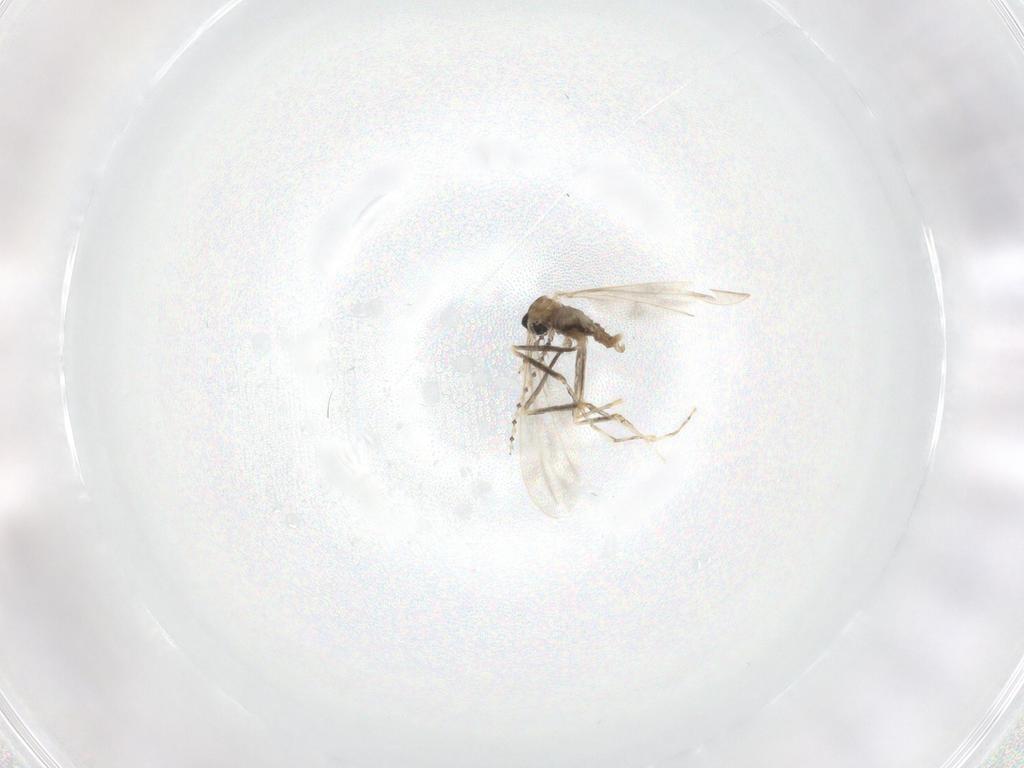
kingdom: Animalia
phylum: Arthropoda
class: Insecta
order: Diptera
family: Cecidomyiidae
